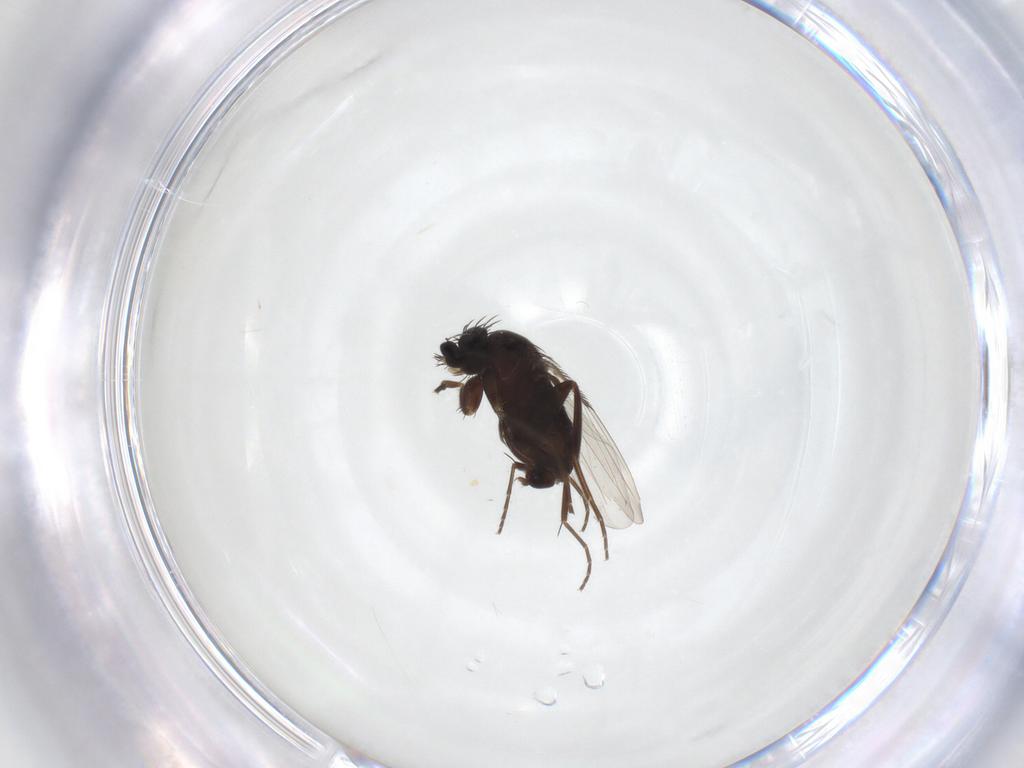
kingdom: Animalia
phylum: Arthropoda
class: Insecta
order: Diptera
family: Phoridae
